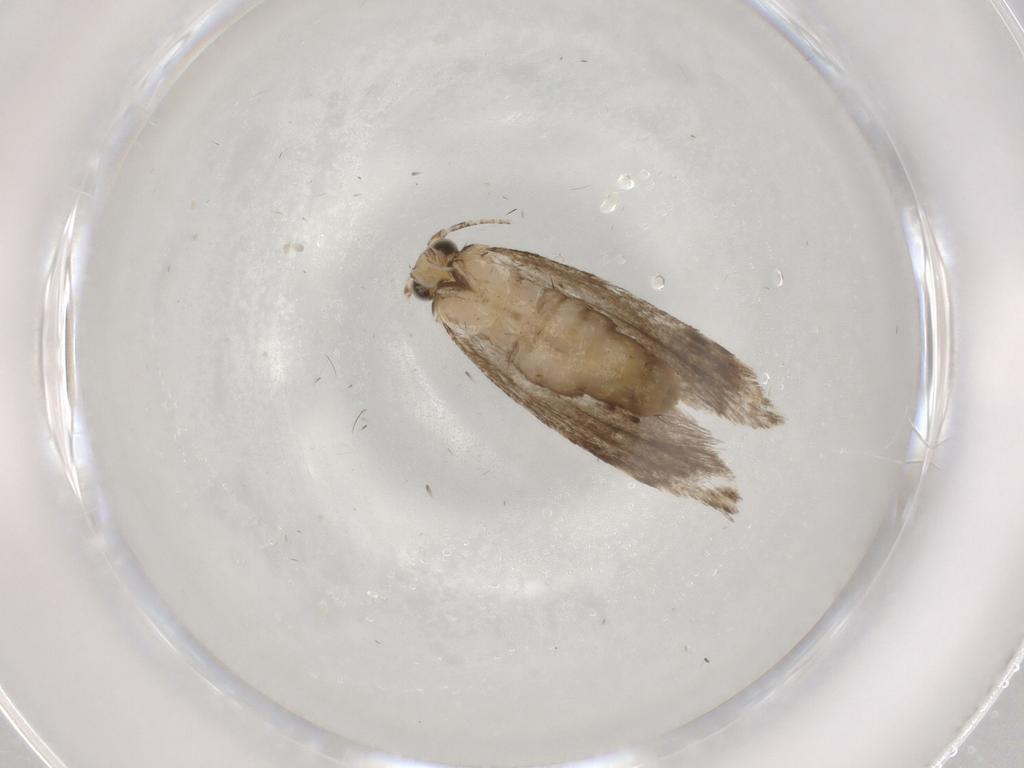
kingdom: Animalia
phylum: Arthropoda
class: Insecta
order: Lepidoptera
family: Tineidae
